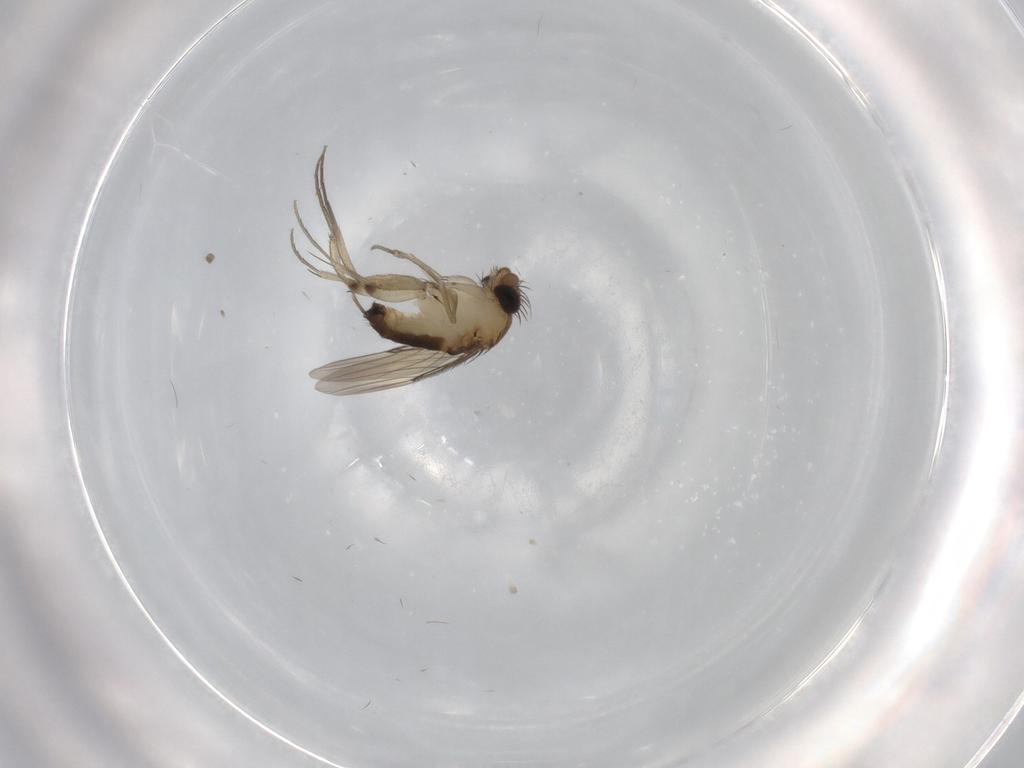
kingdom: Animalia
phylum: Arthropoda
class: Insecta
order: Diptera
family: Phoridae
